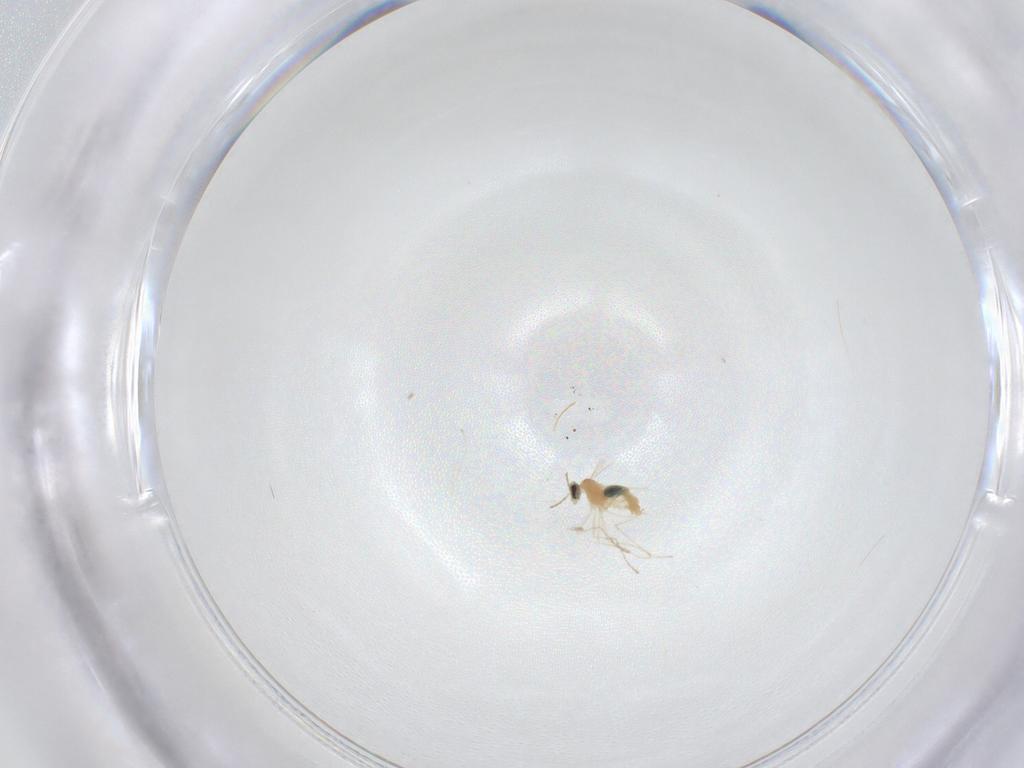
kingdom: Animalia
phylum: Arthropoda
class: Insecta
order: Diptera
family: Cecidomyiidae
